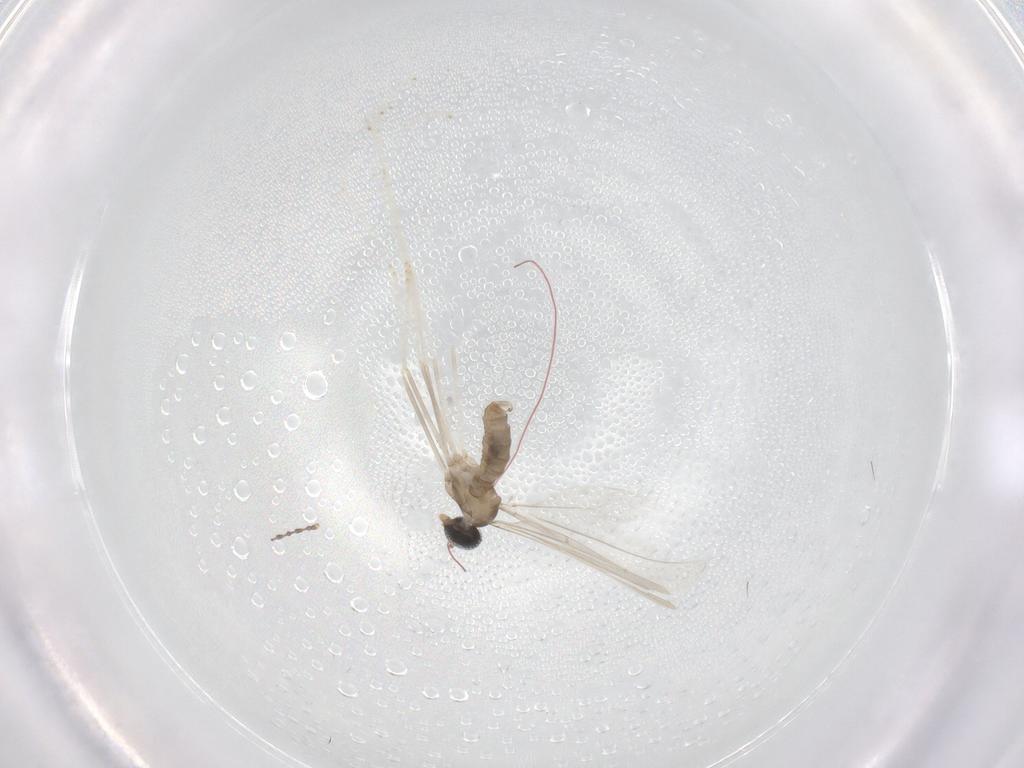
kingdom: Animalia
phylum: Arthropoda
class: Insecta
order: Diptera
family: Cecidomyiidae
